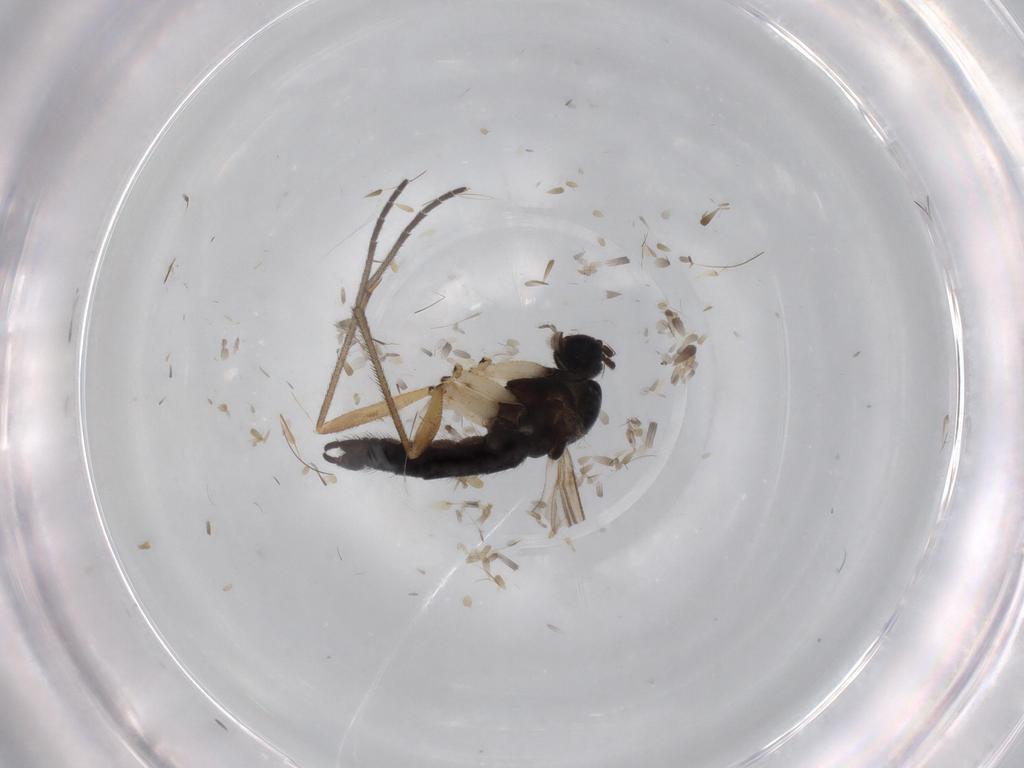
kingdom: Animalia
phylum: Arthropoda
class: Insecta
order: Diptera
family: Sciaridae
